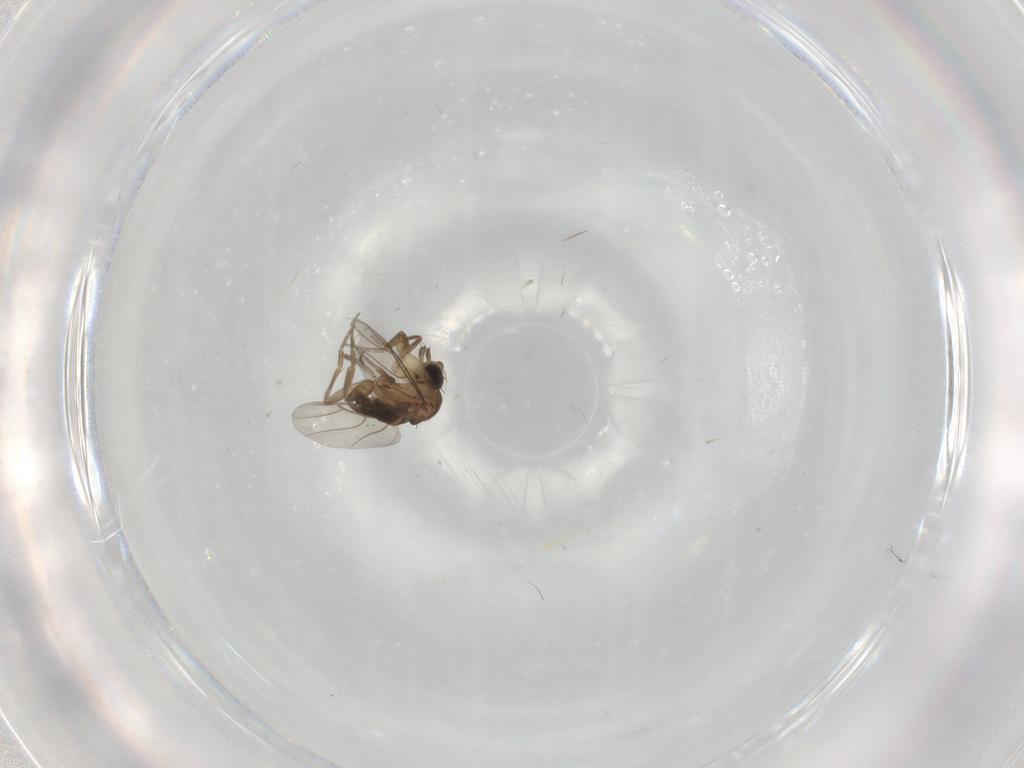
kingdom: Animalia
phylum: Arthropoda
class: Insecta
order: Diptera
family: Phoridae
